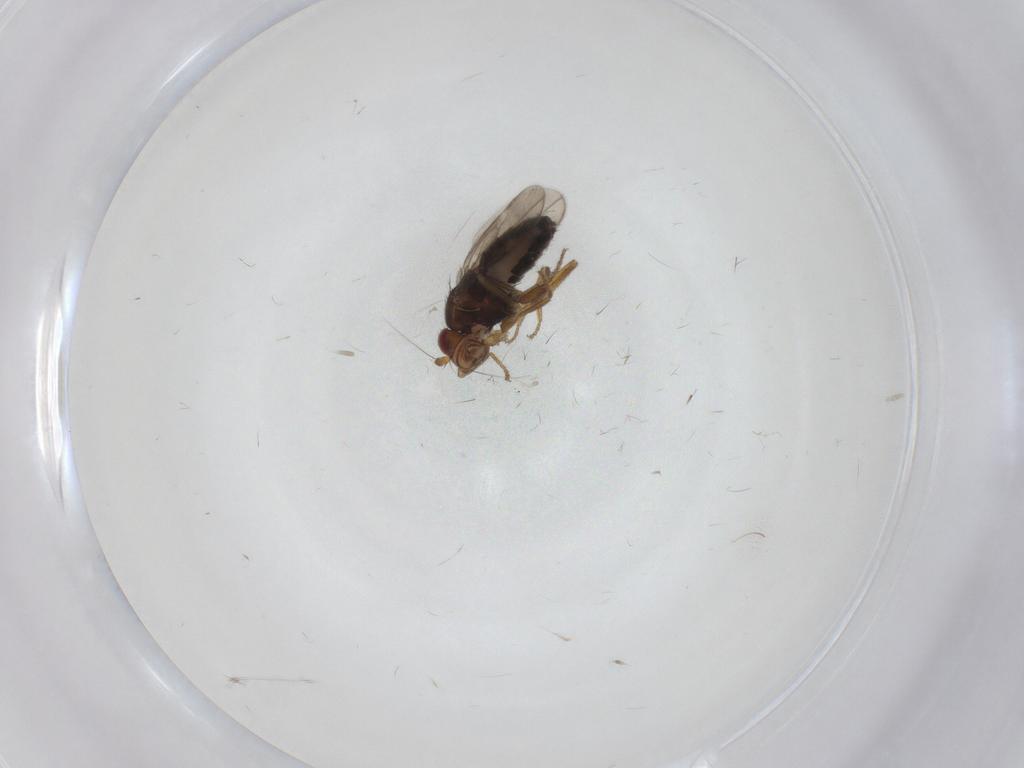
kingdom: Animalia
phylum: Arthropoda
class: Insecta
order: Diptera
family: Sphaeroceridae
